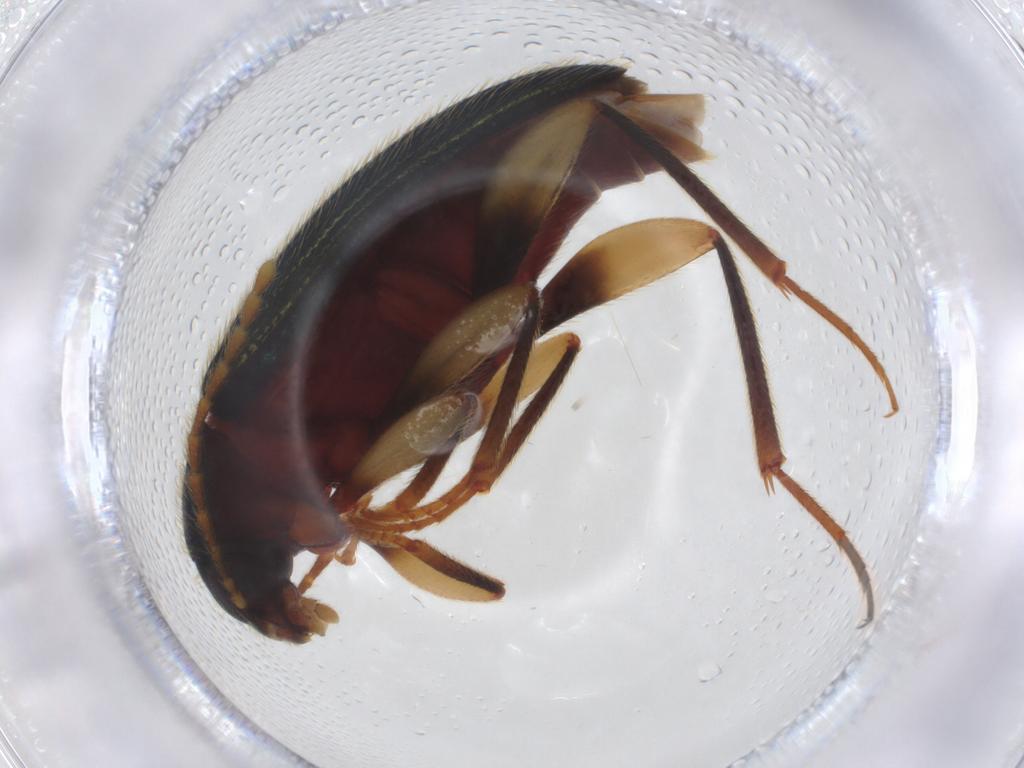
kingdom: Animalia
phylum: Arthropoda
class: Insecta
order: Coleoptera
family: Tenebrionidae
